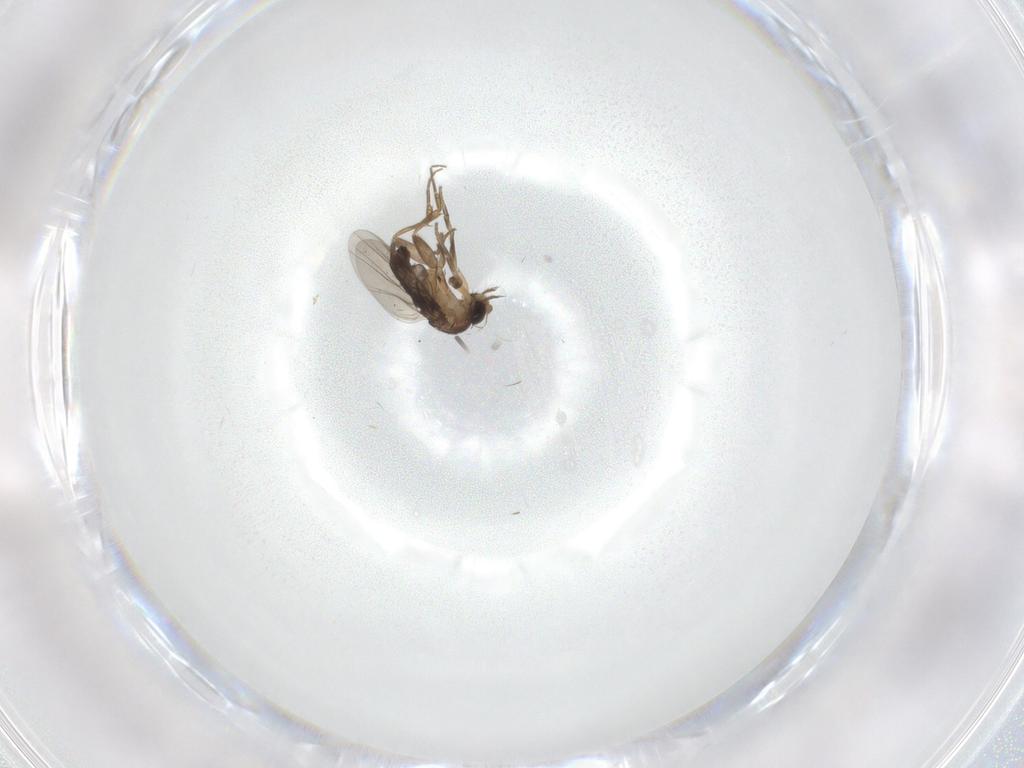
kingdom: Animalia
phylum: Arthropoda
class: Insecta
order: Diptera
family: Phoridae
